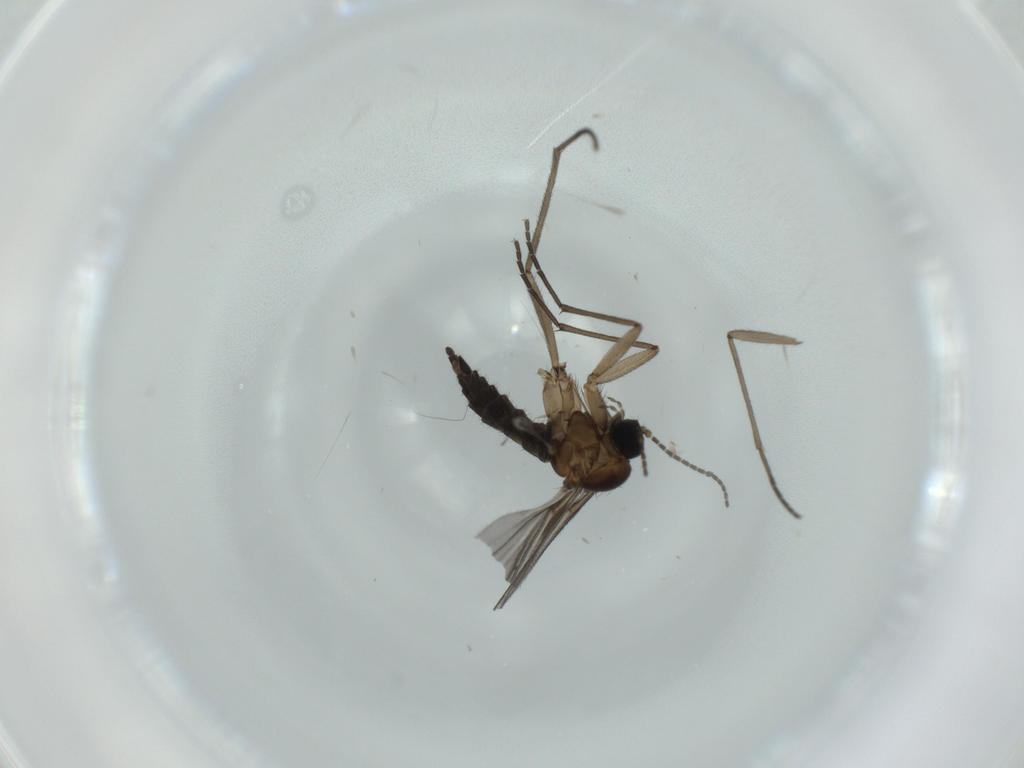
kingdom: Animalia
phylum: Arthropoda
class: Insecta
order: Diptera
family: Sciaridae
